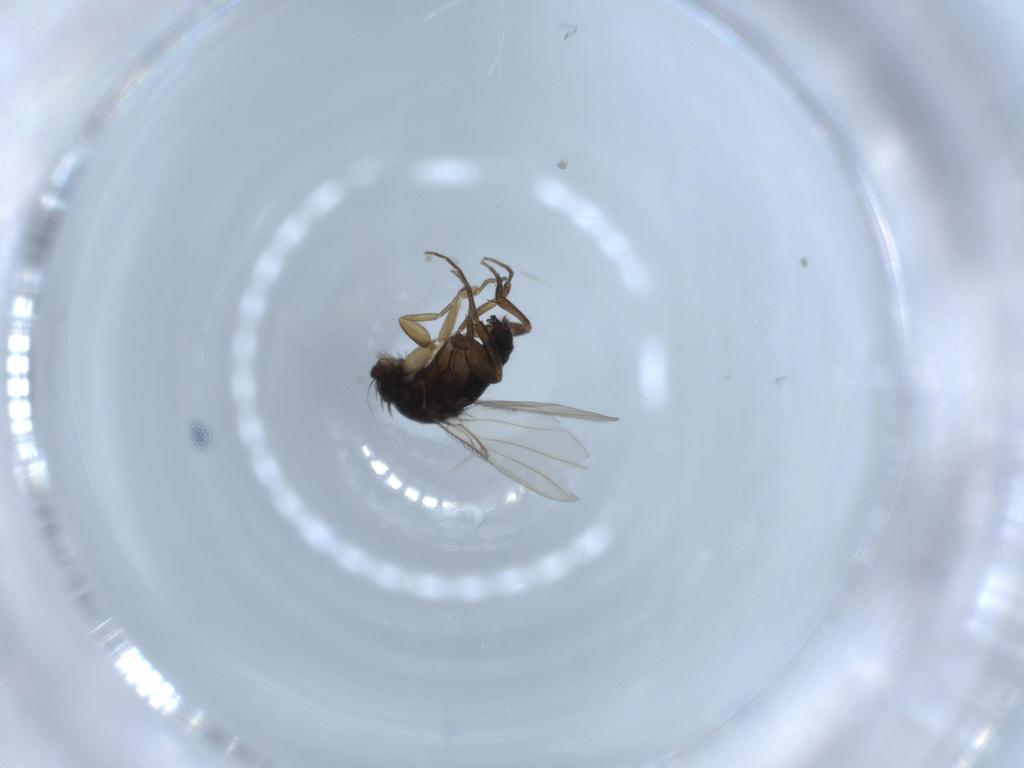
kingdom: Animalia
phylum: Arthropoda
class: Insecta
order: Diptera
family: Phoridae
